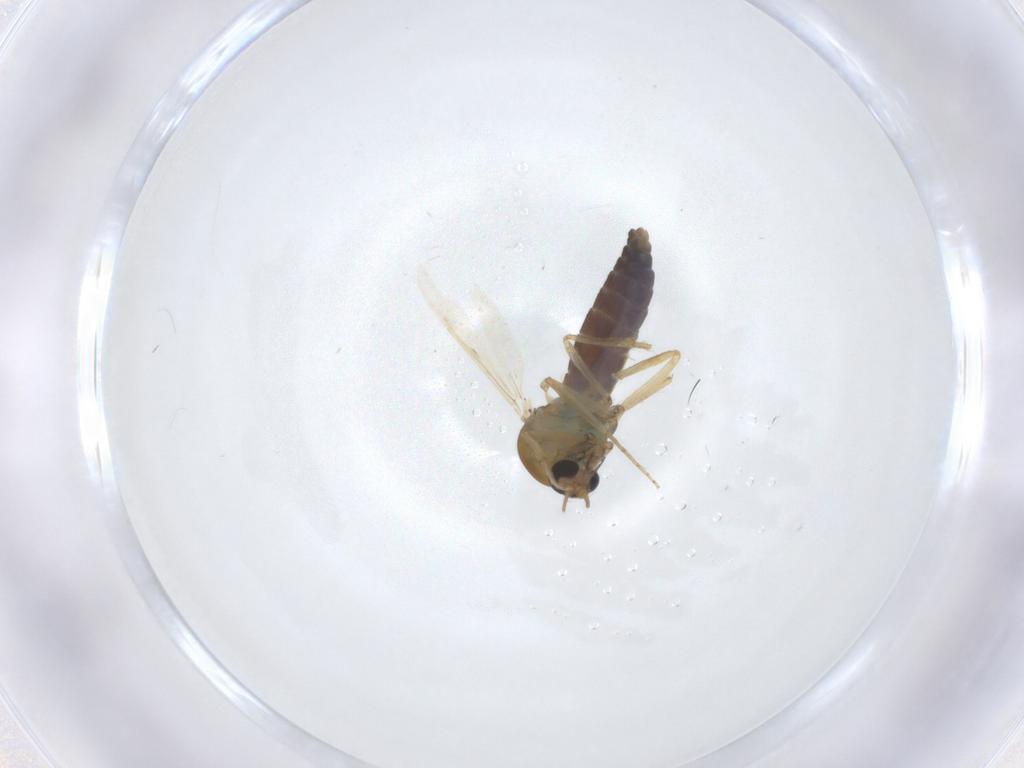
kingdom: Animalia
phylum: Arthropoda
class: Insecta
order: Diptera
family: Ceratopogonidae
